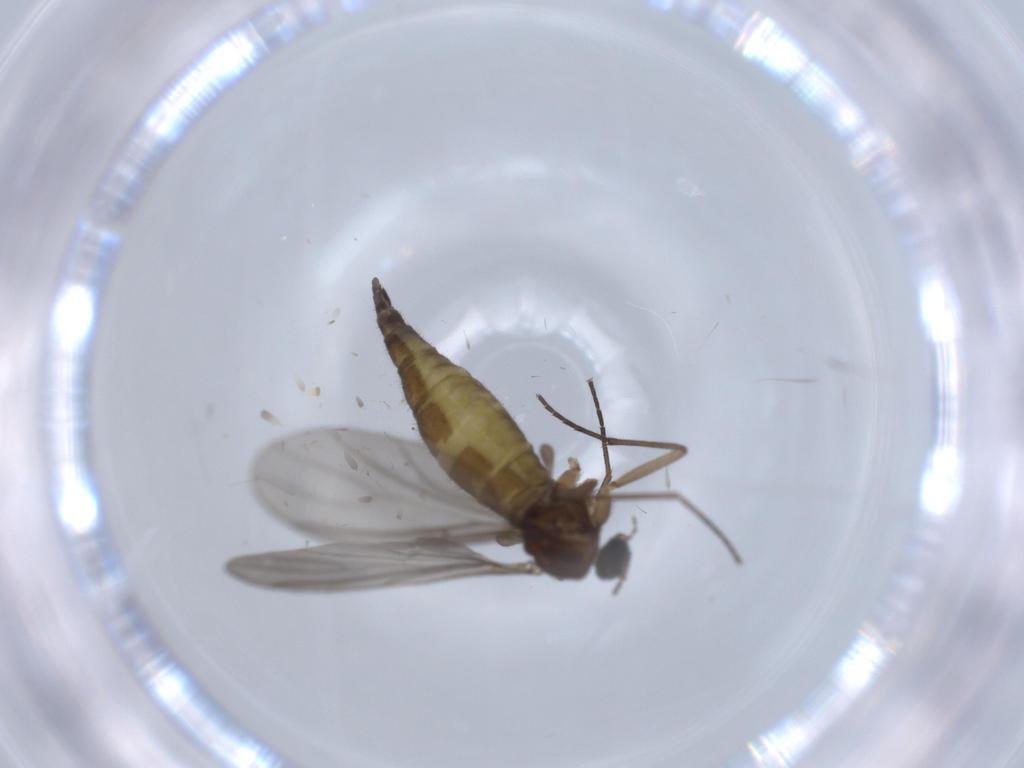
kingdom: Animalia
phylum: Arthropoda
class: Insecta
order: Diptera
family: Sciaridae
